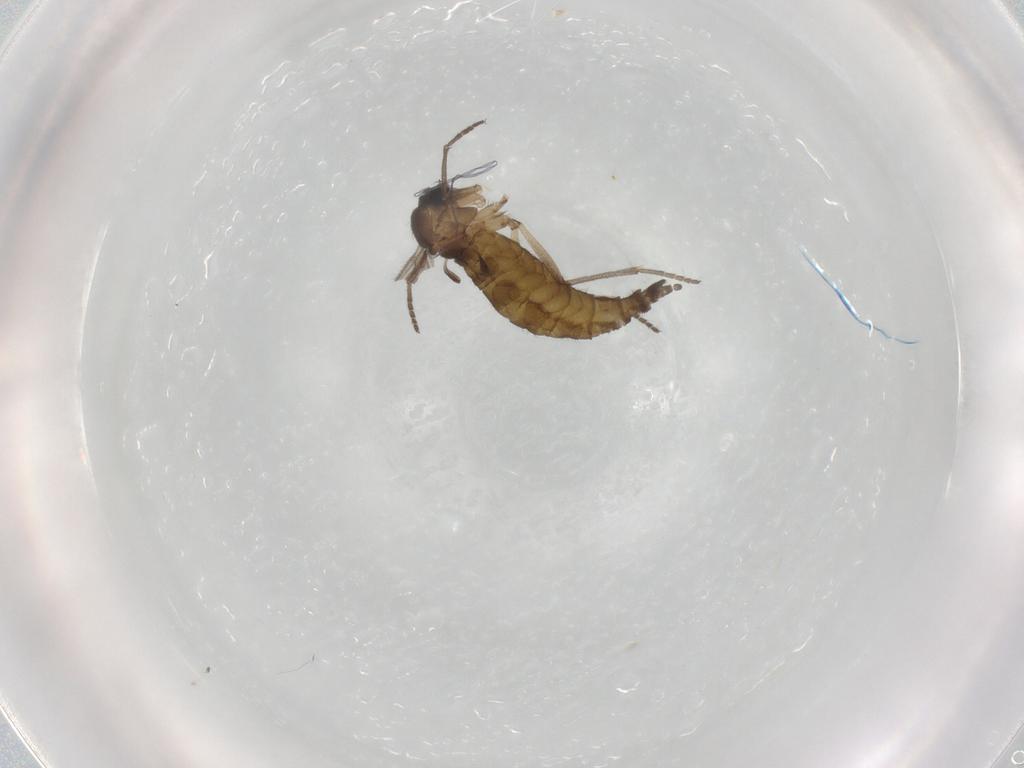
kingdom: Animalia
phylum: Arthropoda
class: Insecta
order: Diptera
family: Sciaridae
